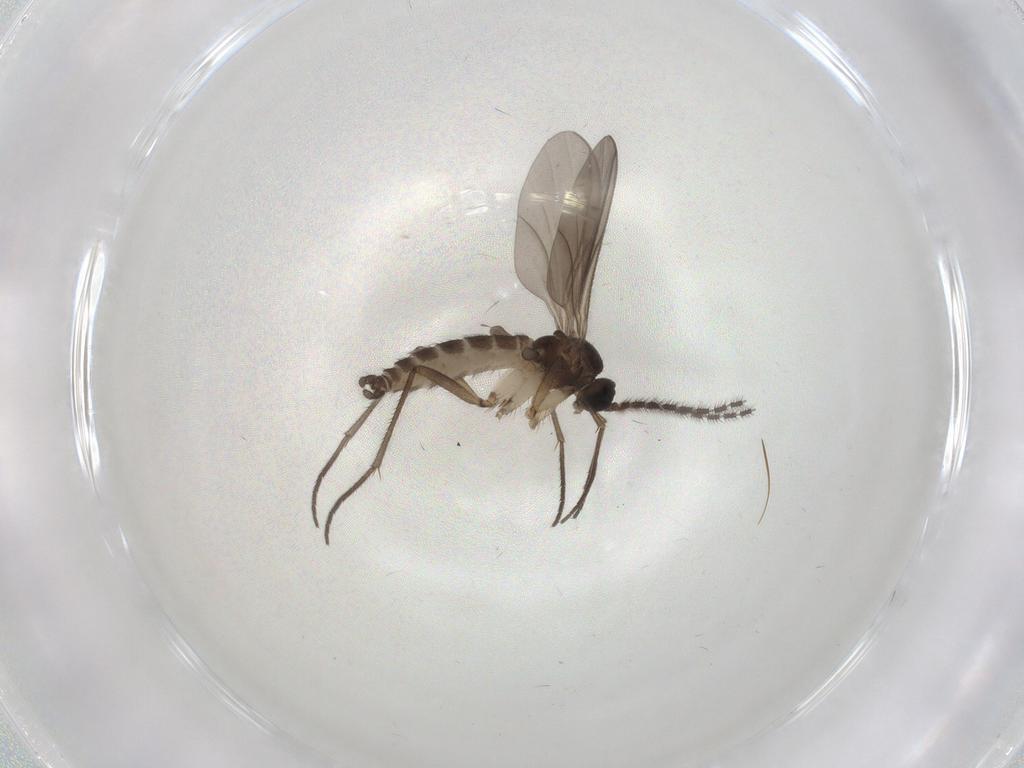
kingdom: Animalia
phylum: Arthropoda
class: Insecta
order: Diptera
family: Sciaridae
